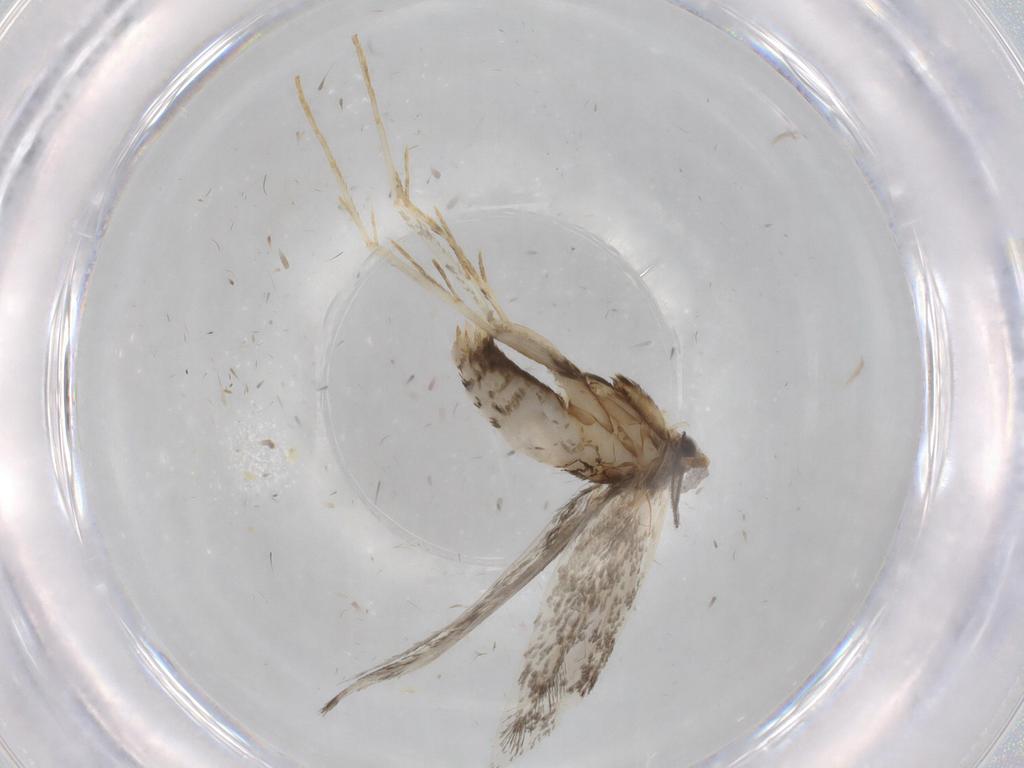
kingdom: Animalia
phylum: Arthropoda
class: Insecta
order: Lepidoptera
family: Tineidae
